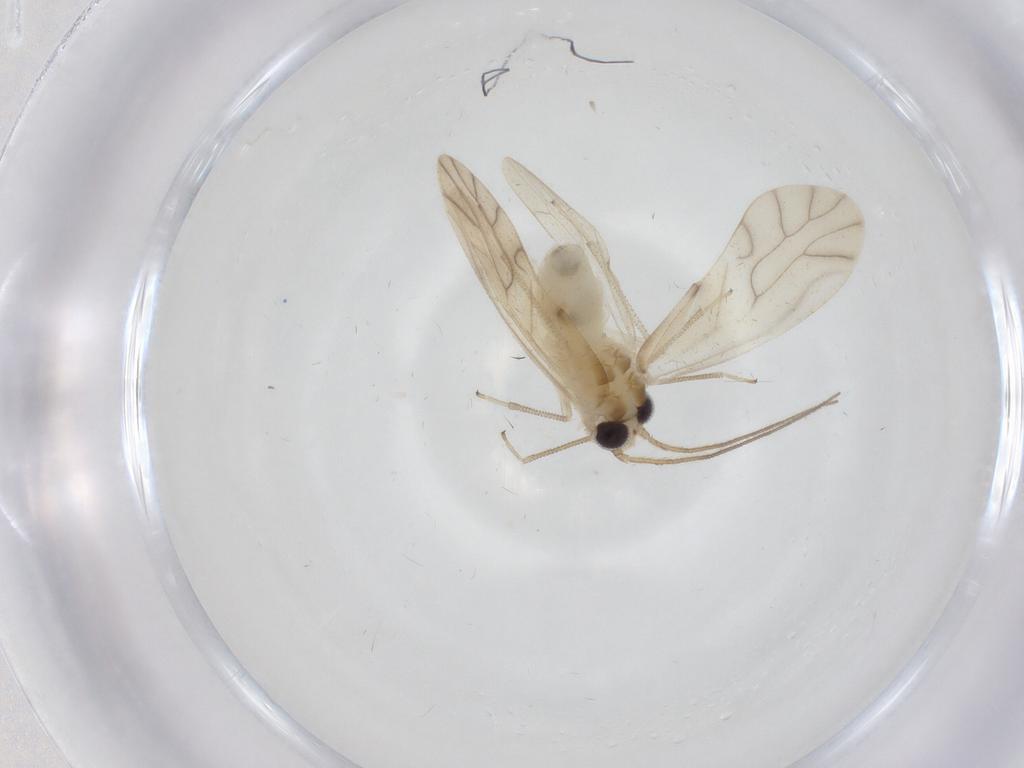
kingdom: Animalia
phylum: Arthropoda
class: Insecta
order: Psocodea
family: Caeciliusidae
